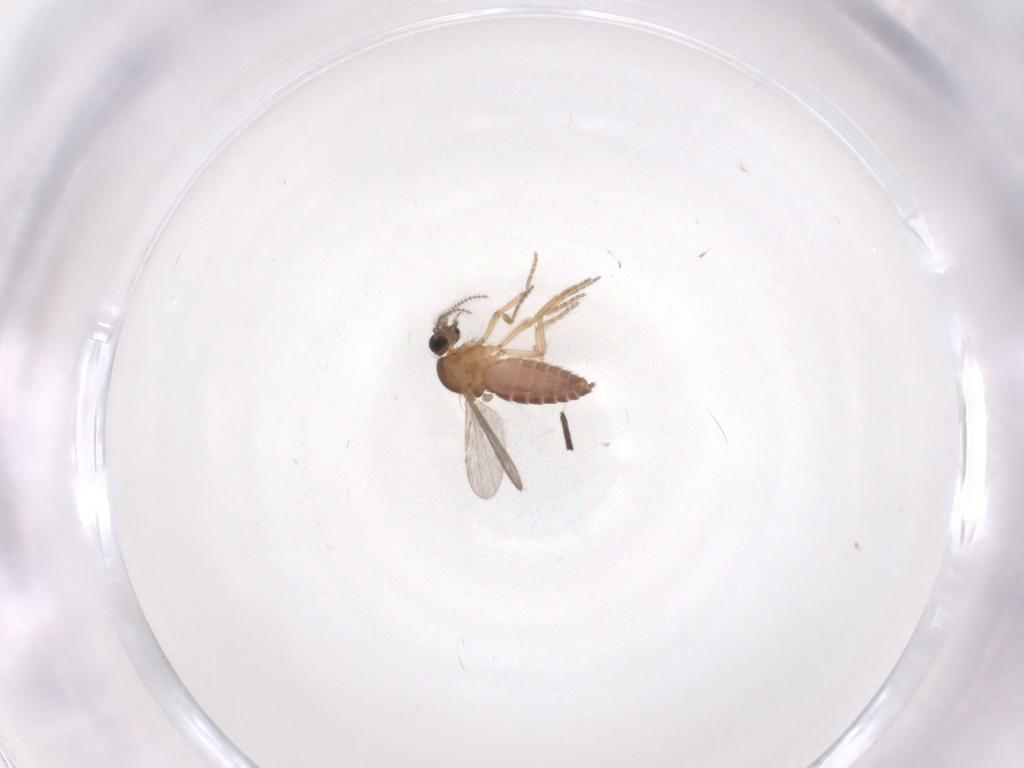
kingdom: Animalia
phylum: Arthropoda
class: Insecta
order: Diptera
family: Ceratopogonidae
